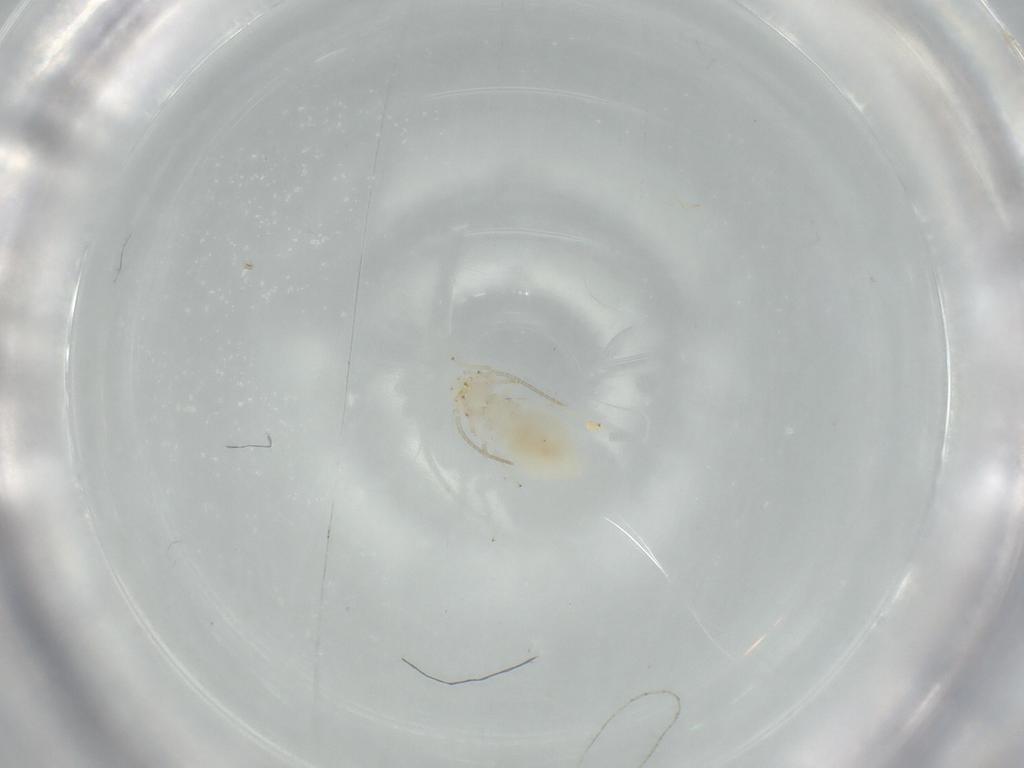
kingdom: Animalia
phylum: Arthropoda
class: Insecta
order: Psocodea
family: Caeciliusidae
